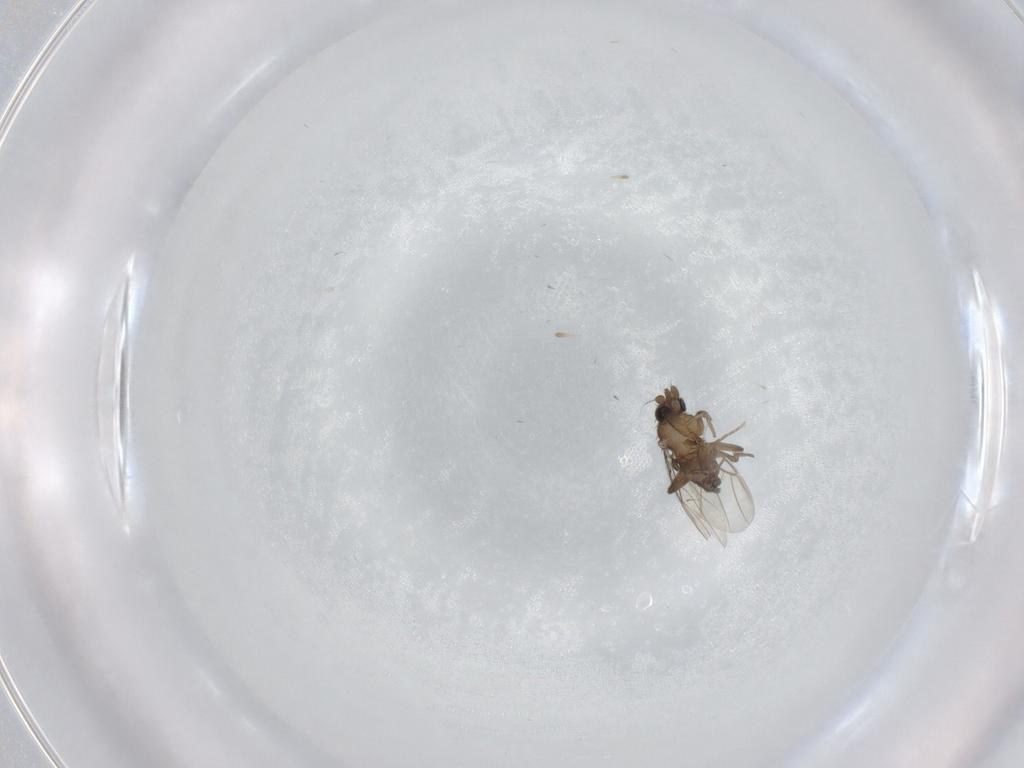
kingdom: Animalia
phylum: Arthropoda
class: Insecta
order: Diptera
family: Phoridae
